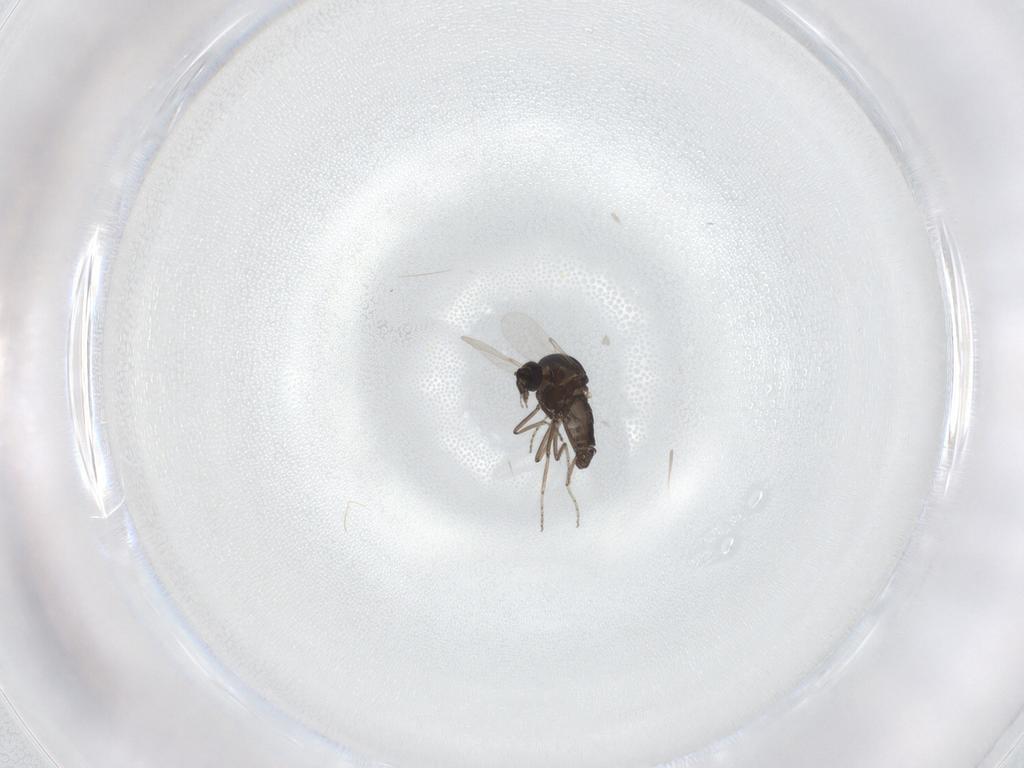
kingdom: Animalia
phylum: Arthropoda
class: Insecta
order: Diptera
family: Ceratopogonidae
